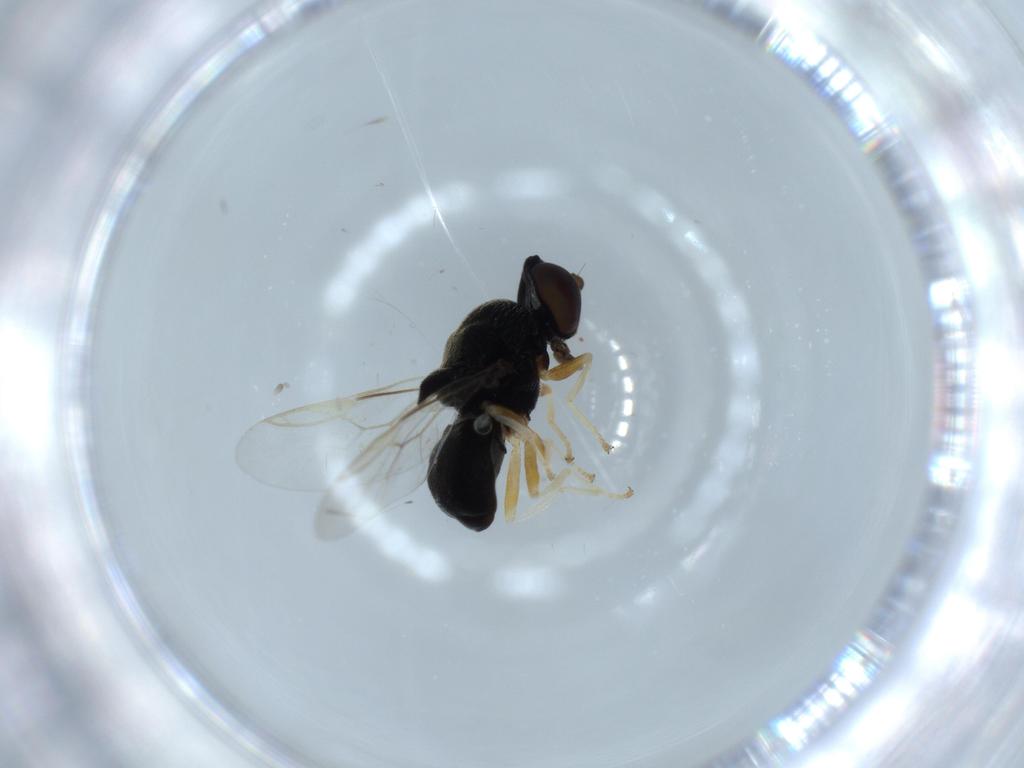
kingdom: Animalia
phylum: Arthropoda
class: Insecta
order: Diptera
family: Stratiomyidae
